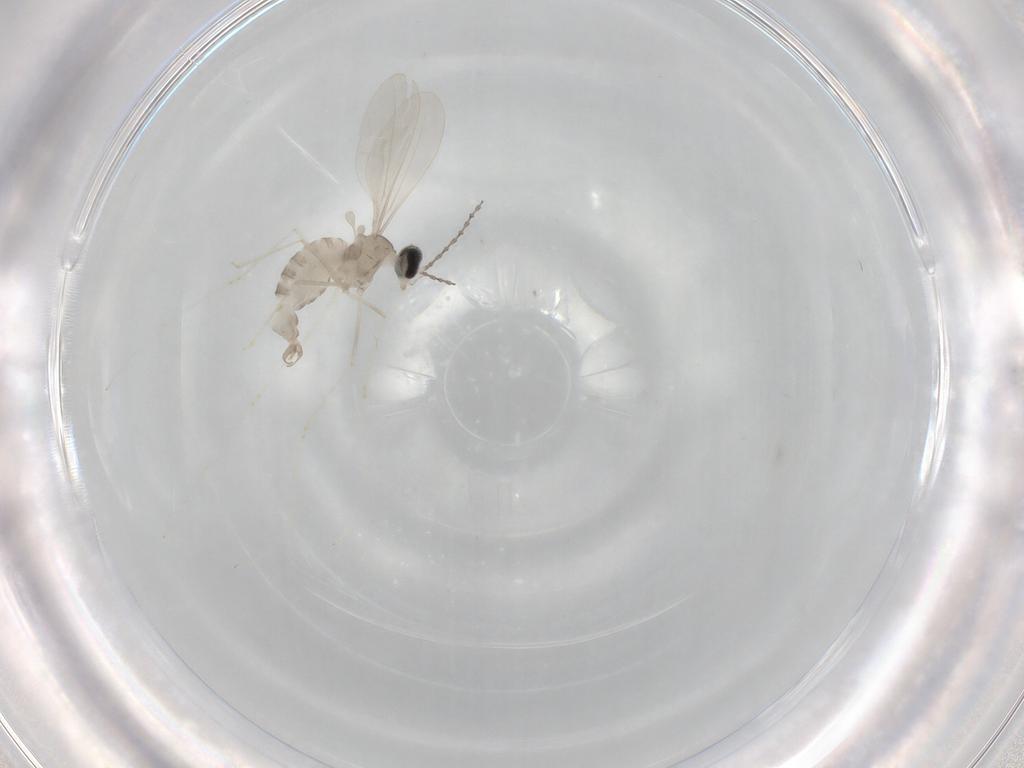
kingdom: Animalia
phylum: Arthropoda
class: Insecta
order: Diptera
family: Cecidomyiidae
